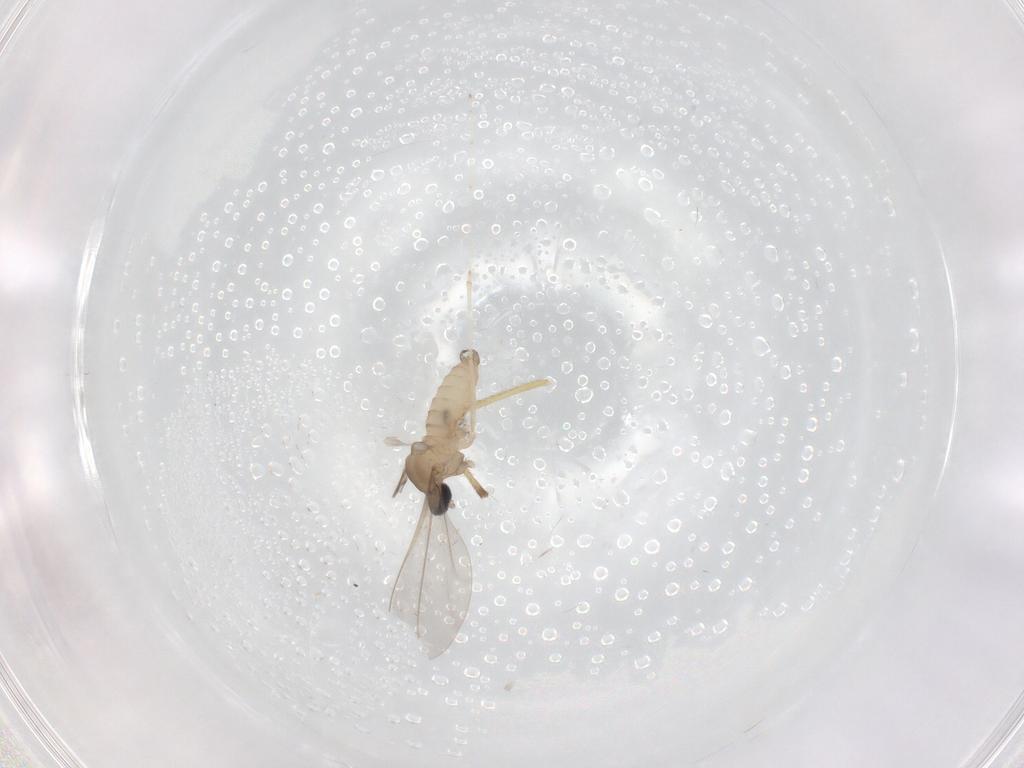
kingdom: Animalia
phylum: Arthropoda
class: Insecta
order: Diptera
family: Cecidomyiidae
